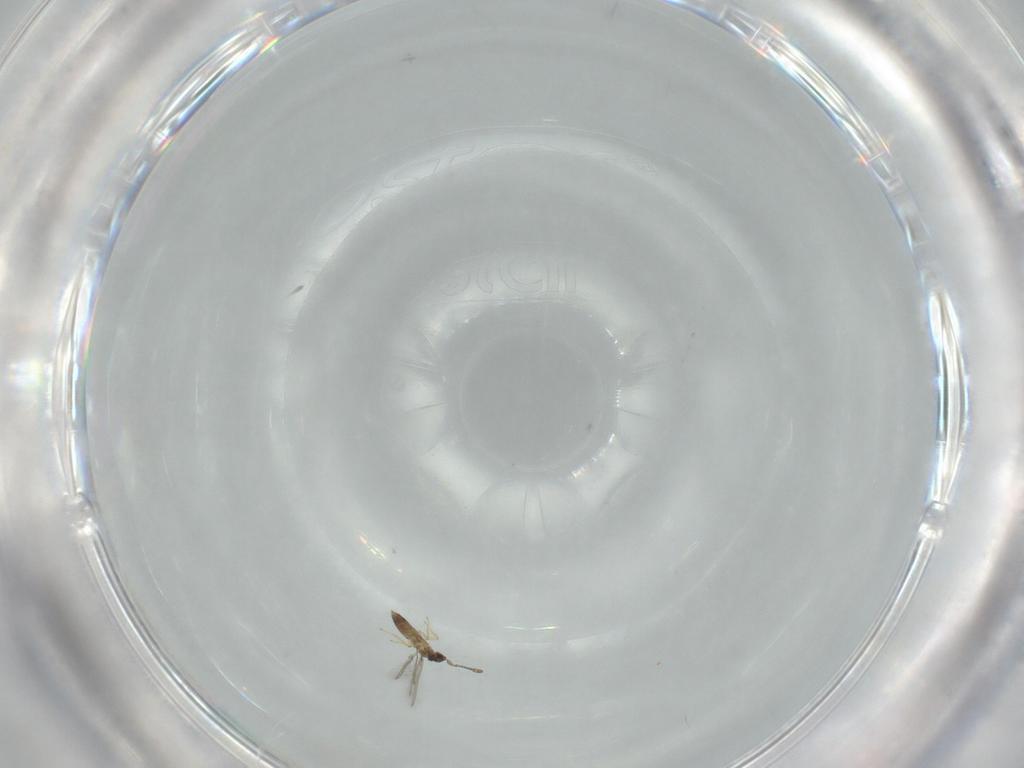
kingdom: Animalia
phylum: Arthropoda
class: Insecta
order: Hymenoptera
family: Mymaridae
